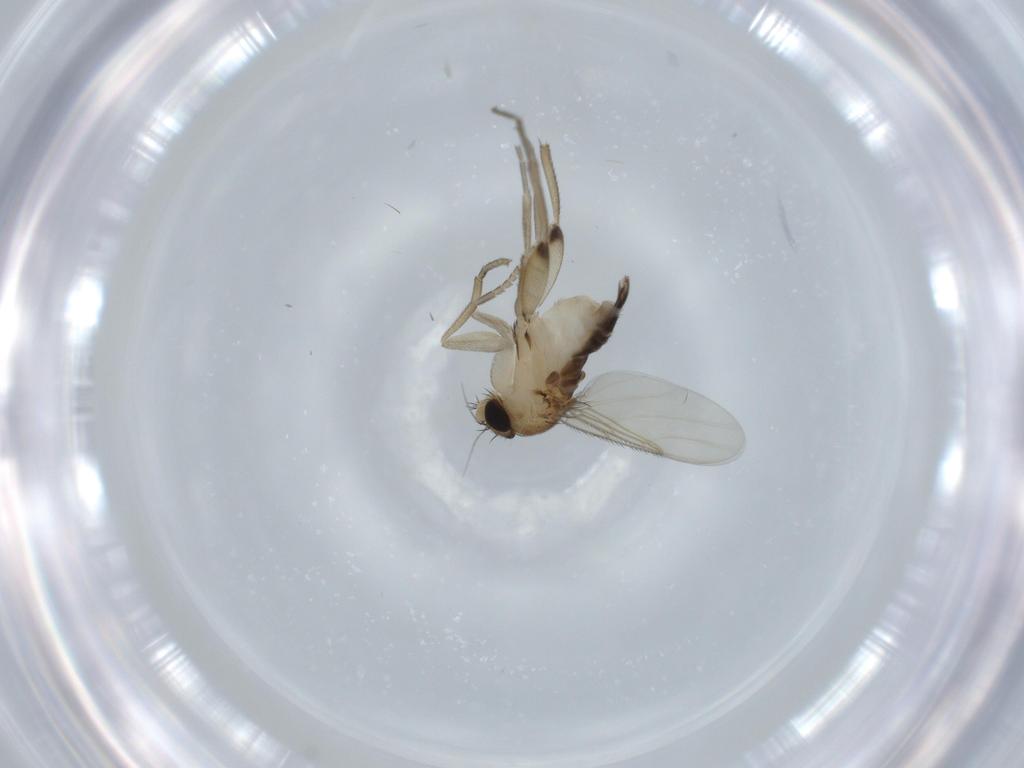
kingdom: Animalia
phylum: Arthropoda
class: Insecta
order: Diptera
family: Phoridae
